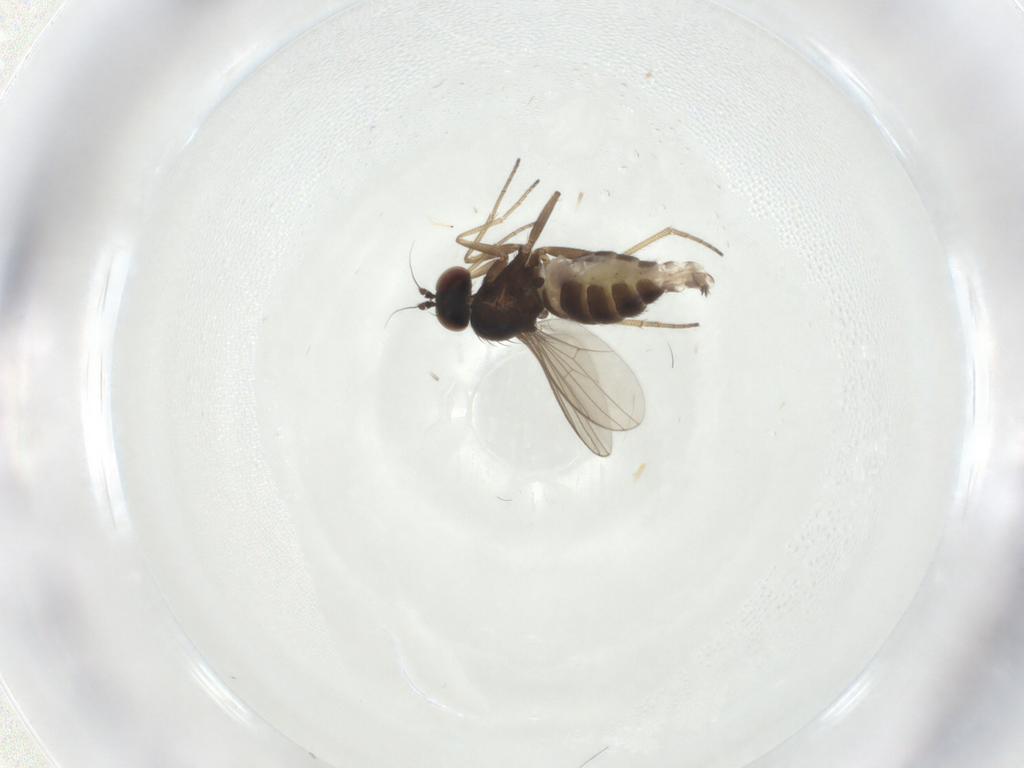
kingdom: Animalia
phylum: Arthropoda
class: Insecta
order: Diptera
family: Dolichopodidae
